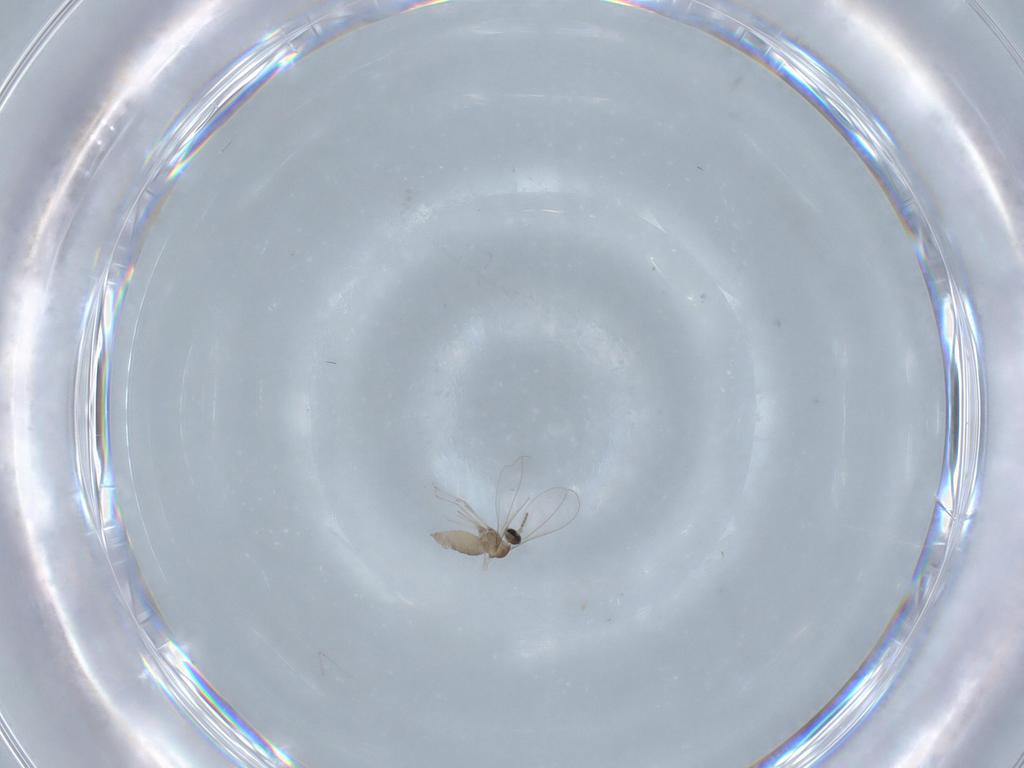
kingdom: Animalia
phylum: Arthropoda
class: Insecta
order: Diptera
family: Cecidomyiidae
